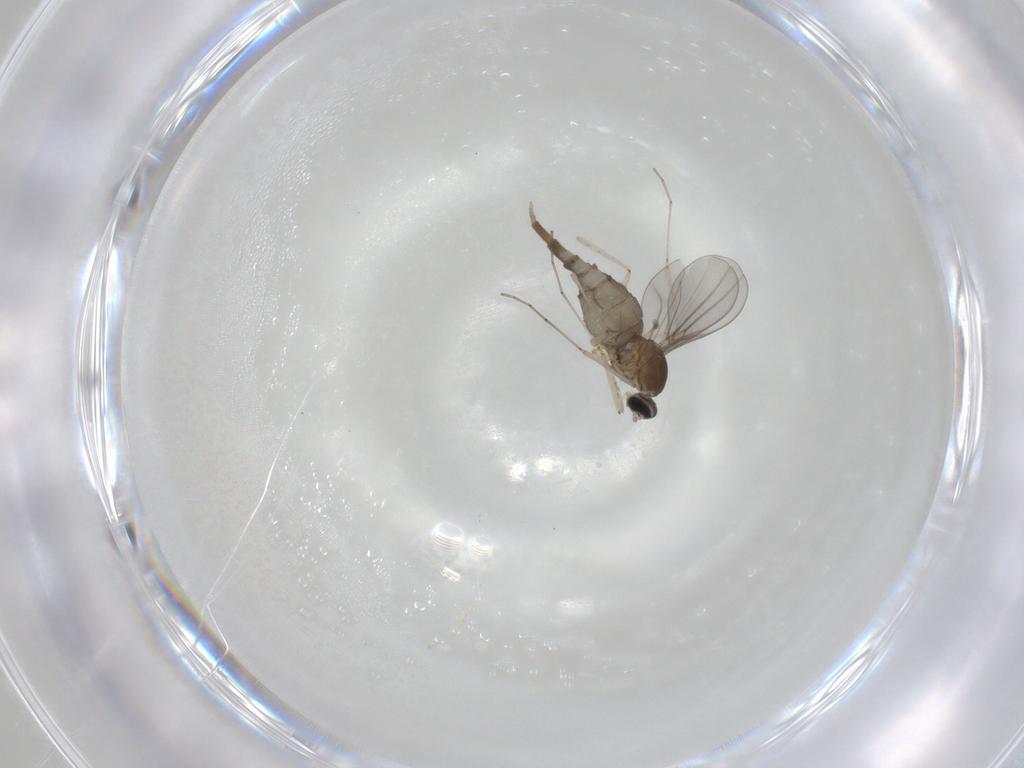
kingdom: Animalia
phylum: Arthropoda
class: Insecta
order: Diptera
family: Cecidomyiidae
